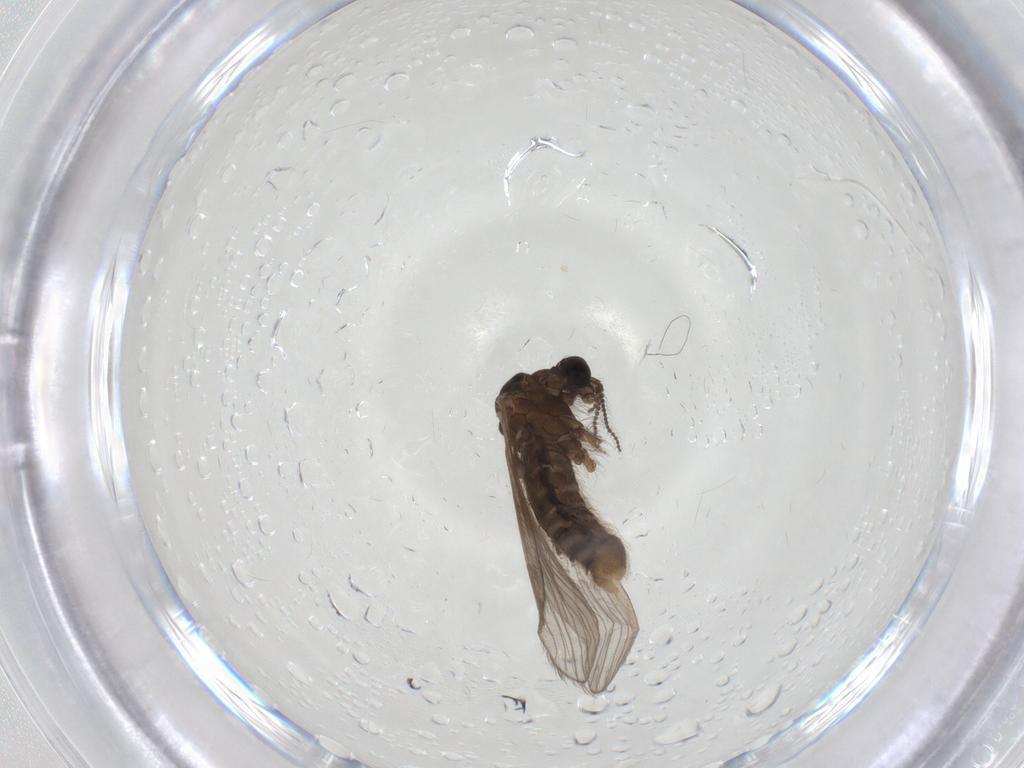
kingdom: Animalia
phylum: Arthropoda
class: Insecta
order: Diptera
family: Limoniidae
